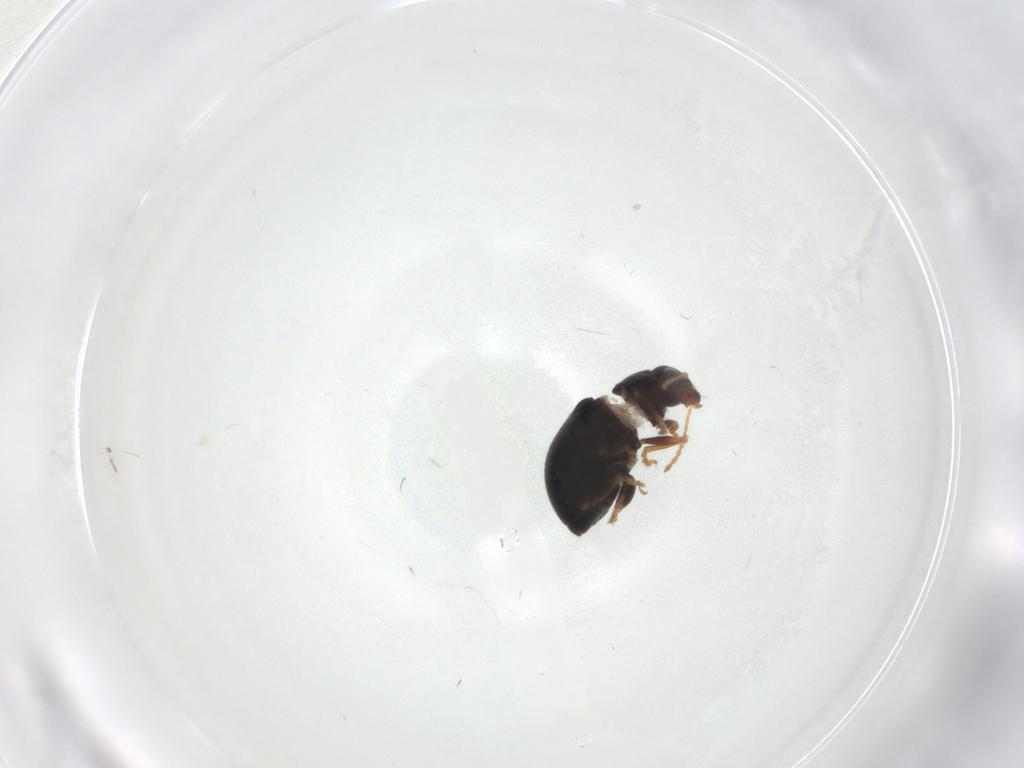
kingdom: Animalia
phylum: Arthropoda
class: Insecta
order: Coleoptera
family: Chrysomelidae
